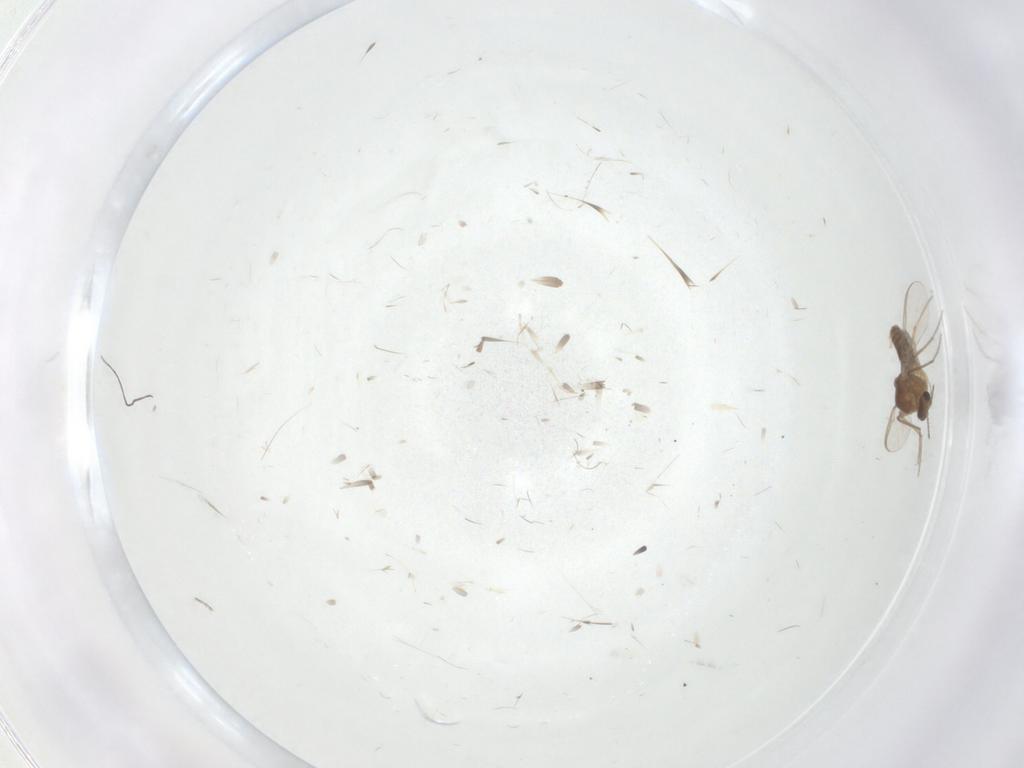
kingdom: Animalia
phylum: Arthropoda
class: Insecta
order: Diptera
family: Chironomidae
